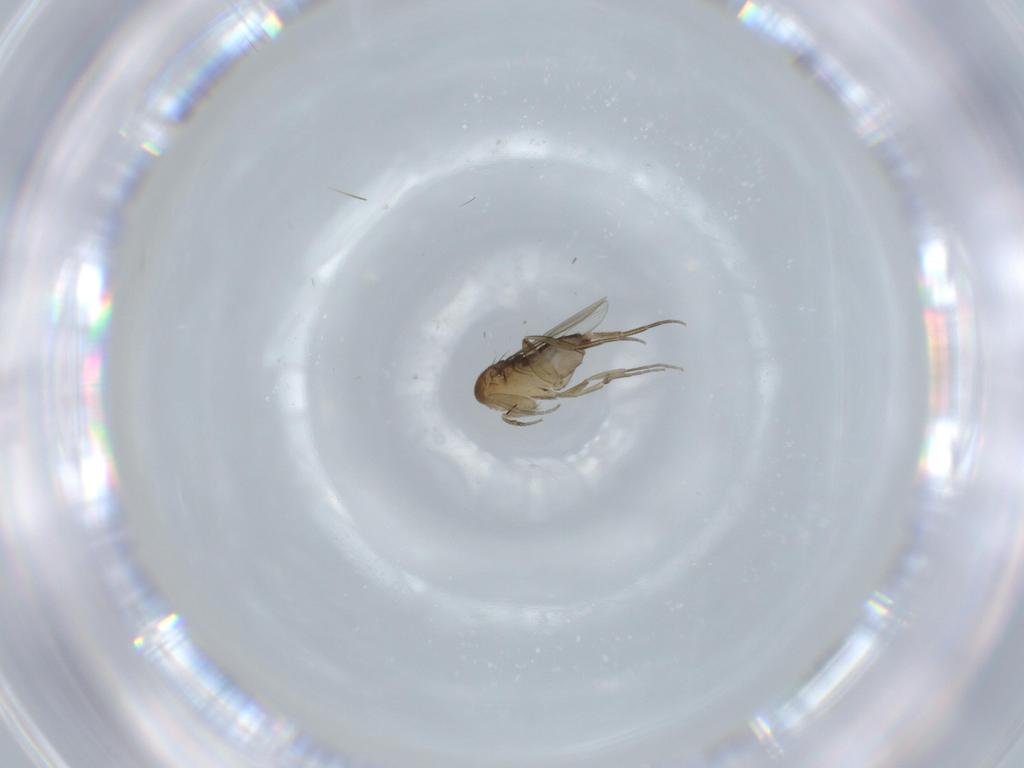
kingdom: Animalia
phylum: Arthropoda
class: Insecta
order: Diptera
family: Phoridae
